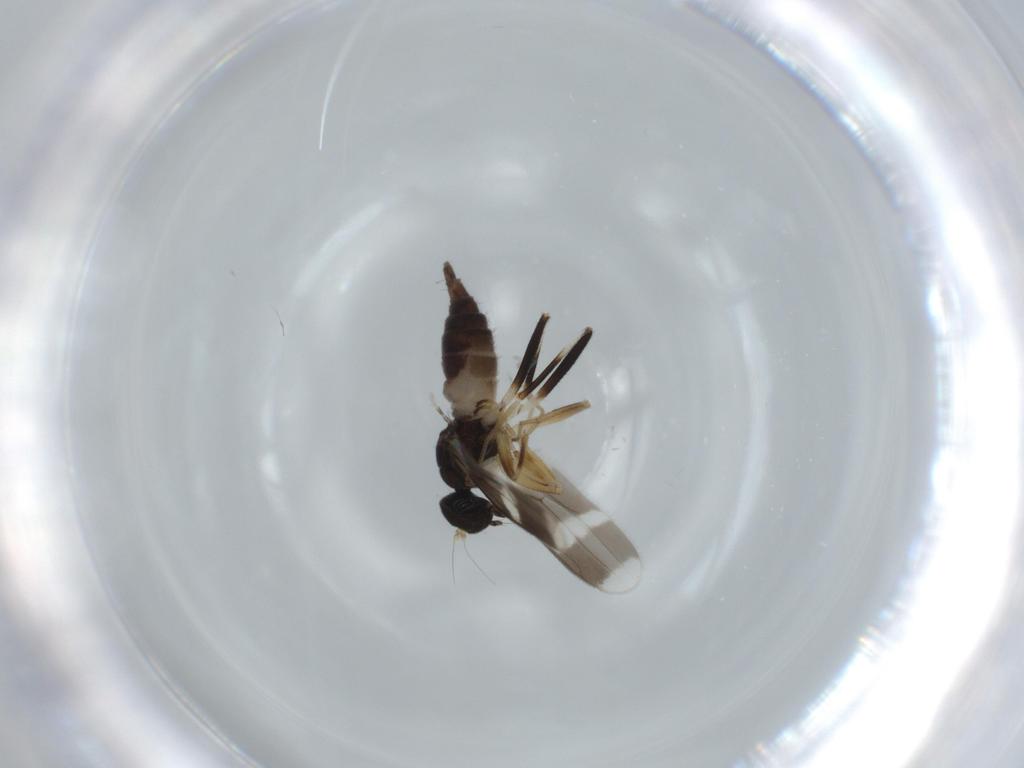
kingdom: Animalia
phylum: Arthropoda
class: Insecta
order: Diptera
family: Hybotidae
